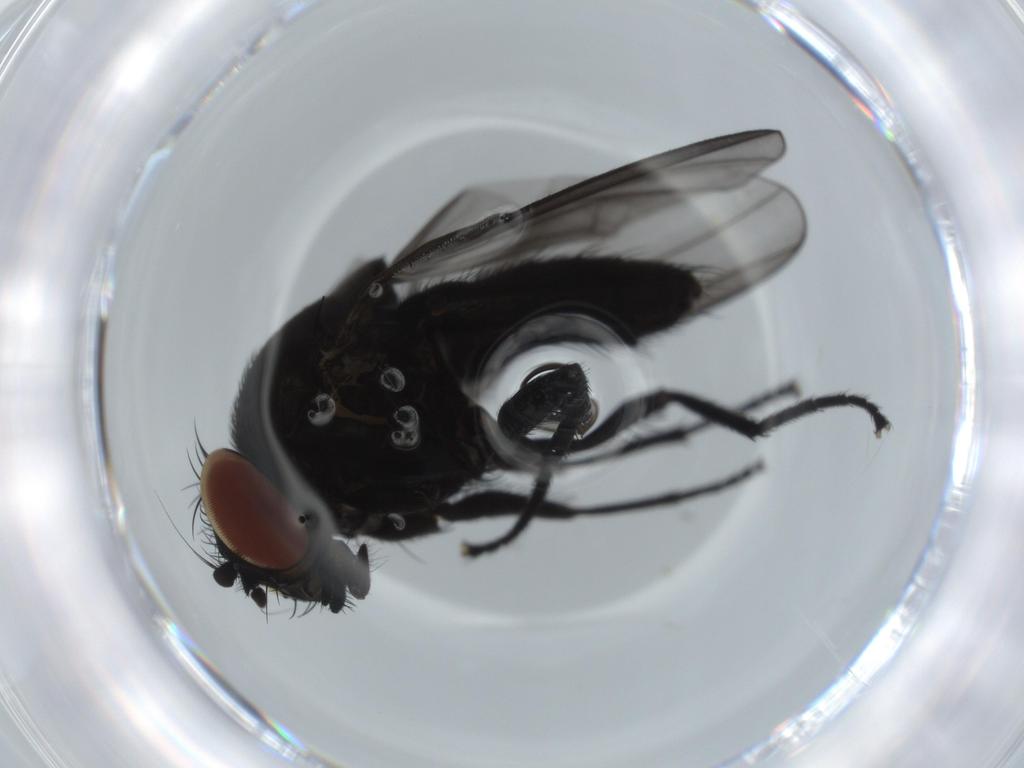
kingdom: Animalia
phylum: Arthropoda
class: Insecta
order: Diptera
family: Milichiidae
